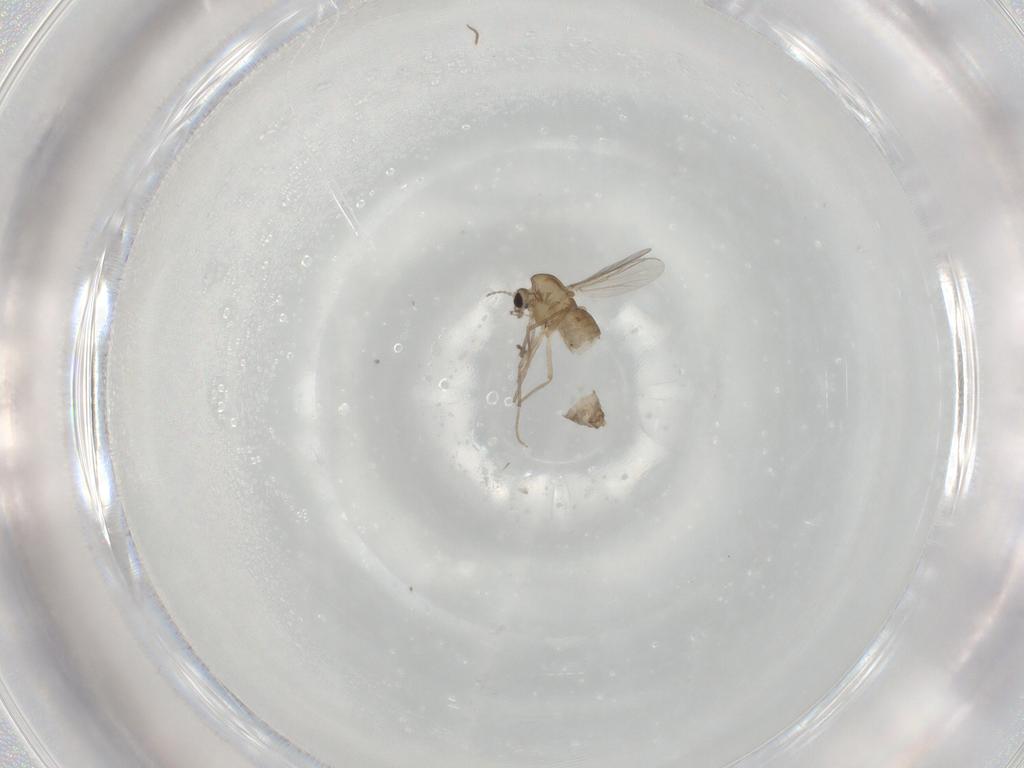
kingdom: Animalia
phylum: Arthropoda
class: Insecta
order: Diptera
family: Chironomidae
